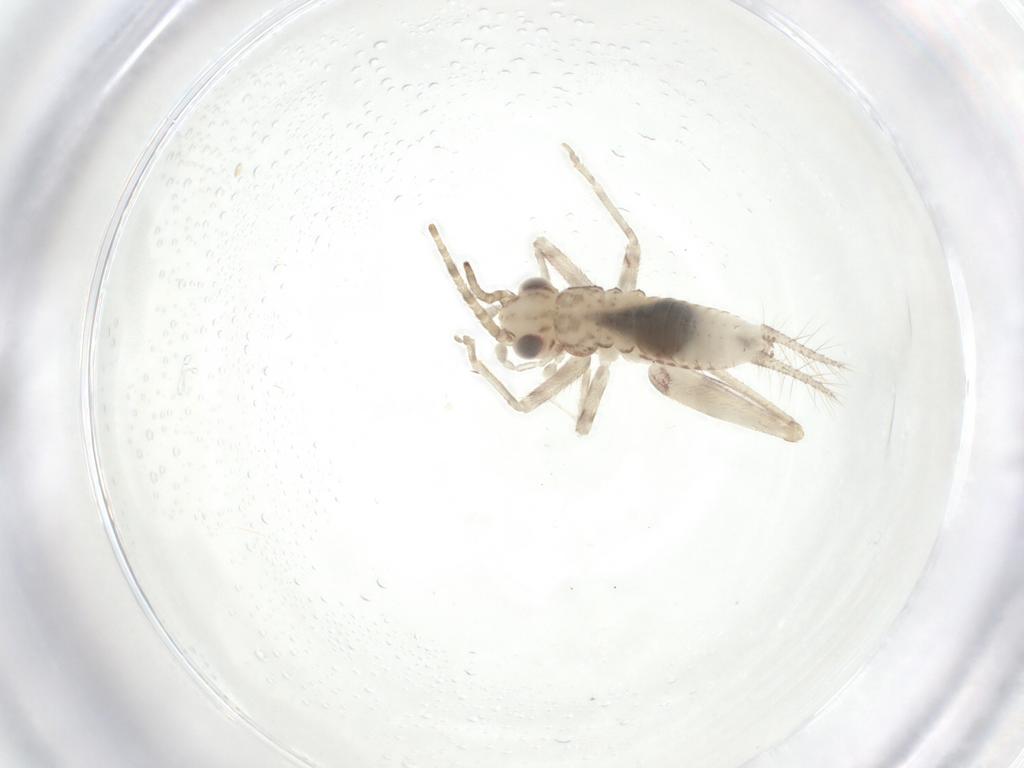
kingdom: Animalia
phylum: Arthropoda
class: Insecta
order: Orthoptera
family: Trigonidiidae
